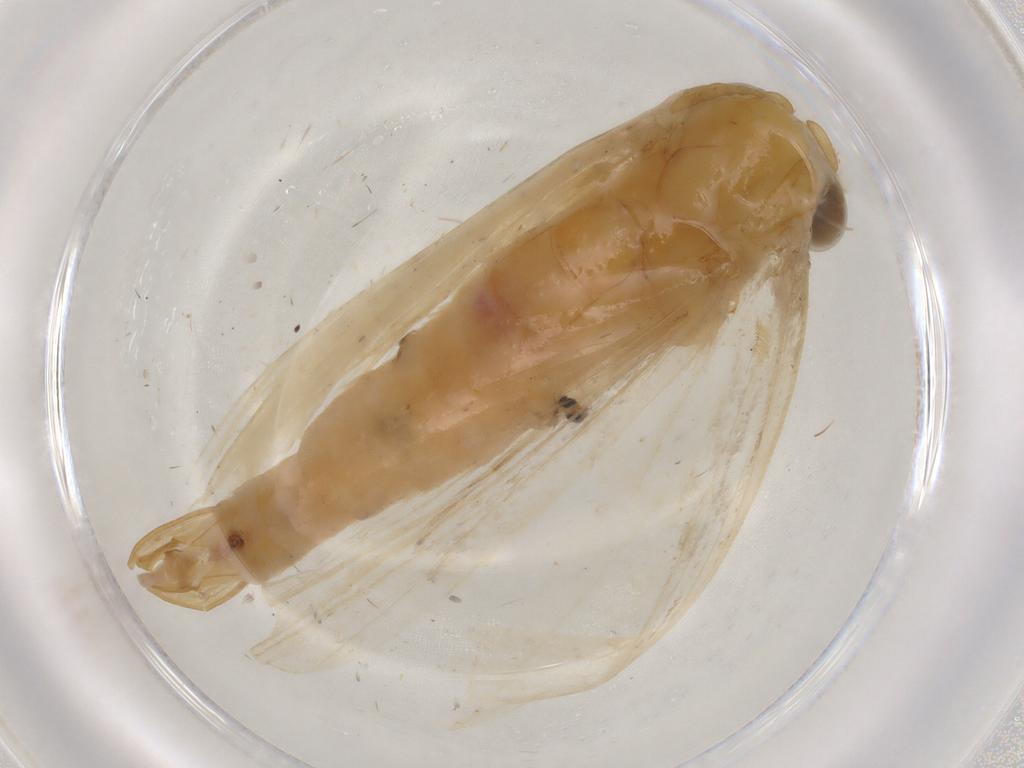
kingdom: Animalia
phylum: Arthropoda
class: Insecta
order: Lepidoptera
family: Pyralidae
